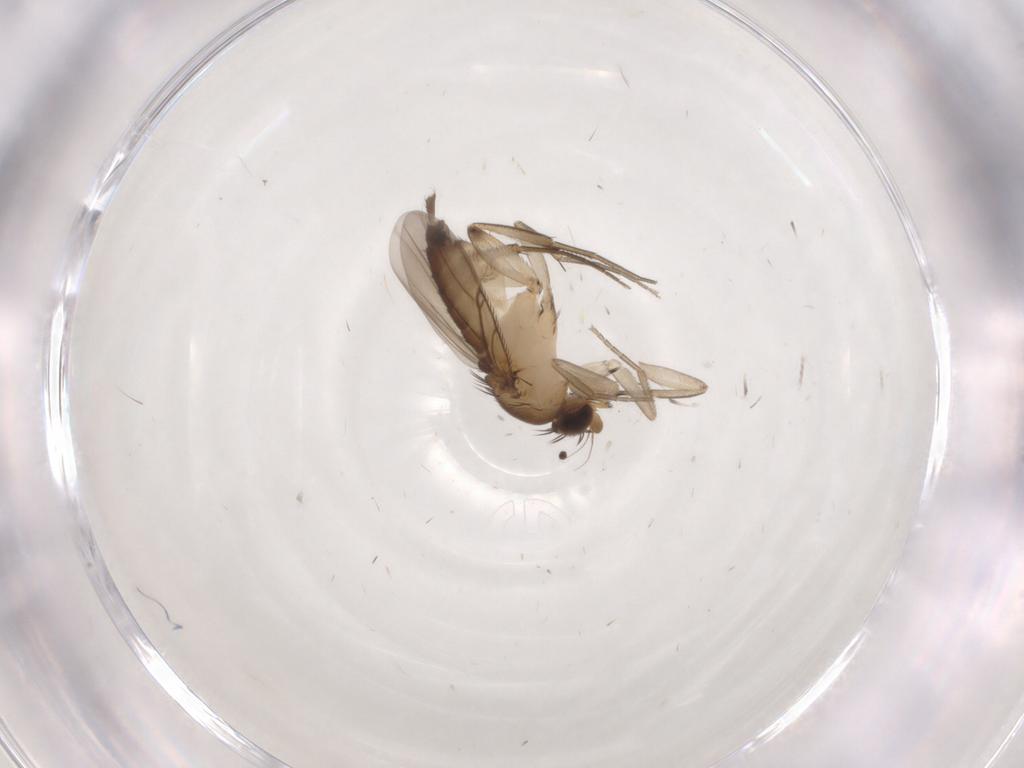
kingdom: Animalia
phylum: Arthropoda
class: Insecta
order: Diptera
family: Phoridae
